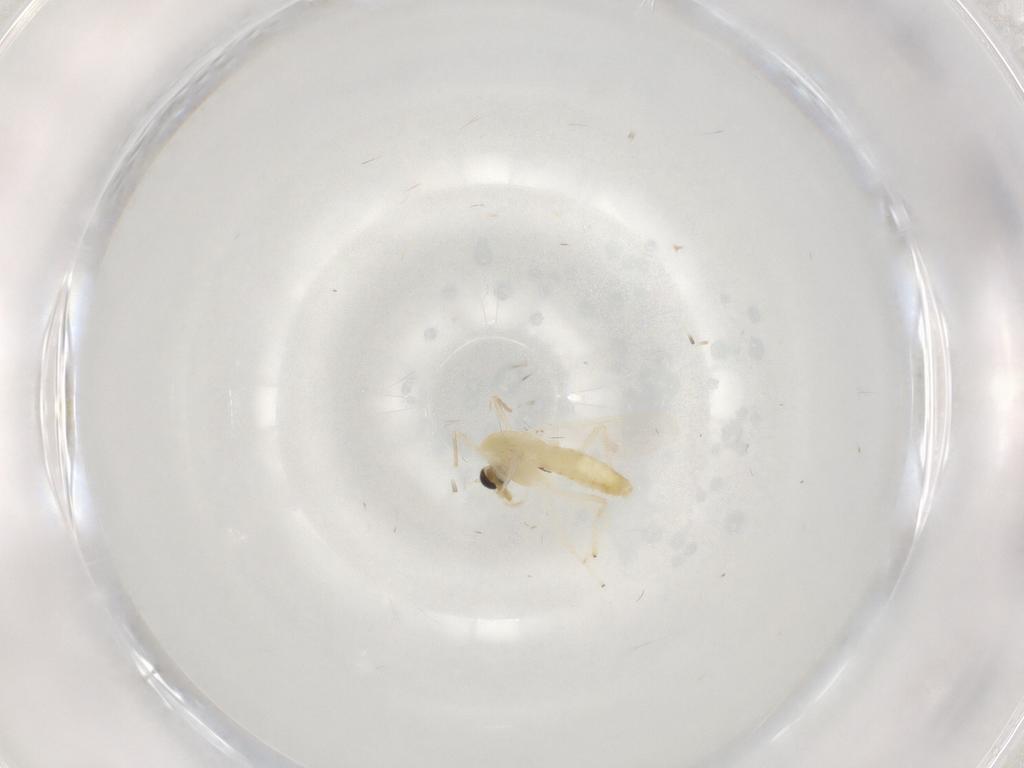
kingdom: Animalia
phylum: Arthropoda
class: Insecta
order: Diptera
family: Chironomidae
